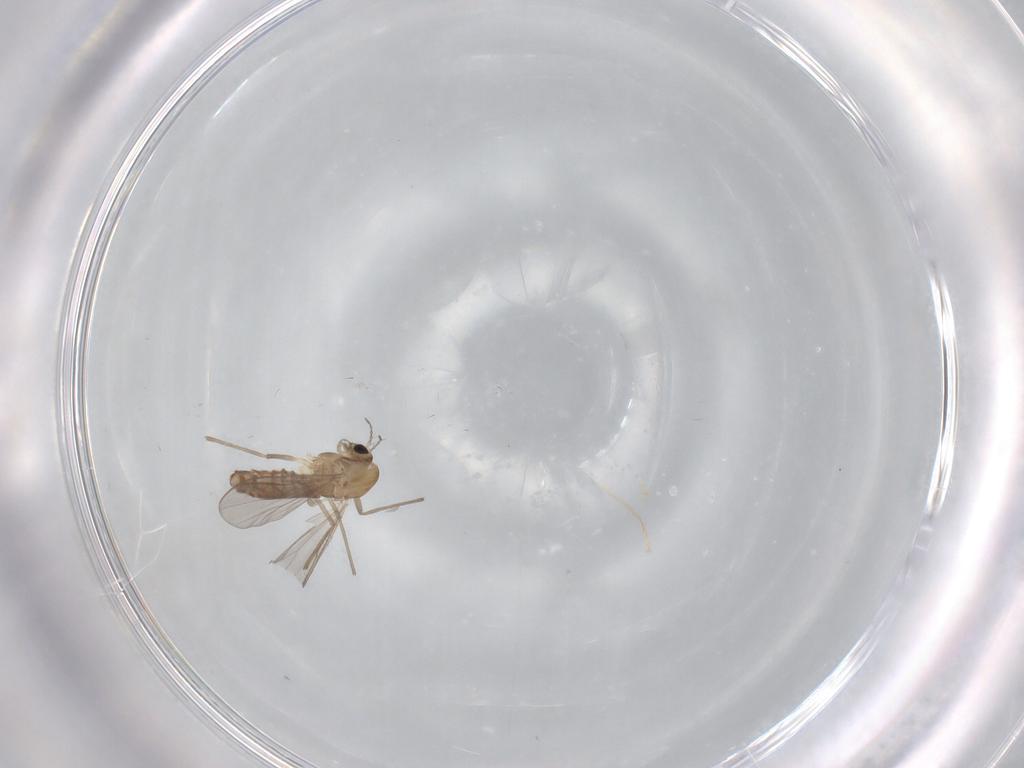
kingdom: Animalia
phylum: Arthropoda
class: Insecta
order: Diptera
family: Chironomidae
